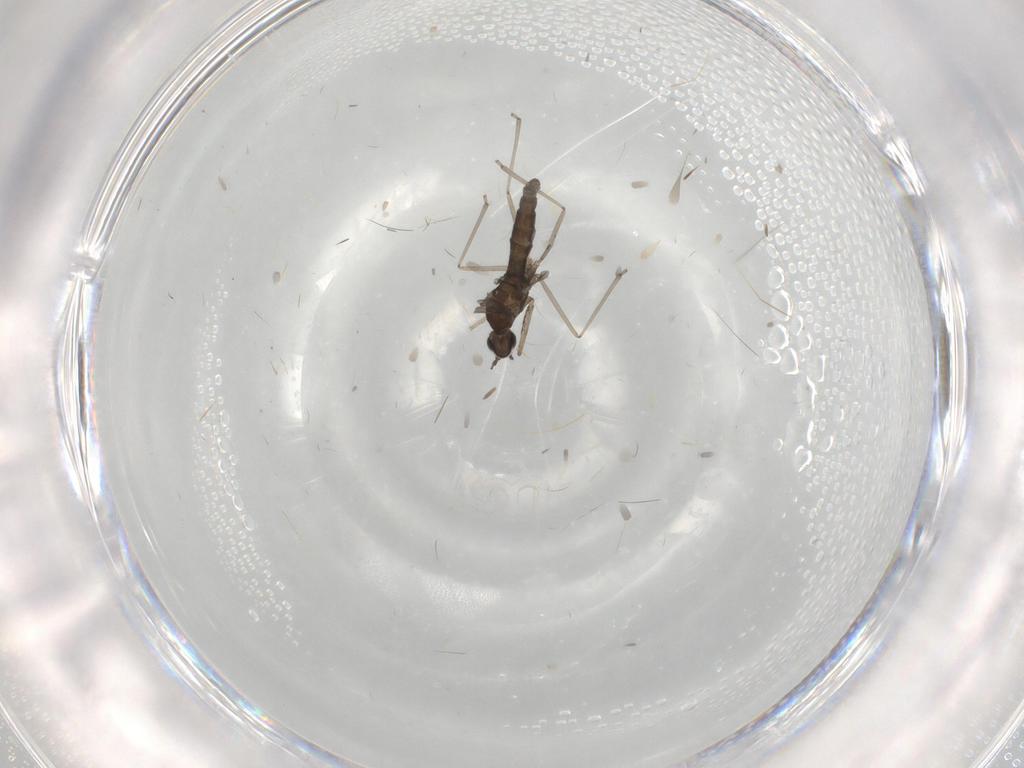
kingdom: Animalia
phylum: Arthropoda
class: Insecta
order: Diptera
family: Cecidomyiidae
